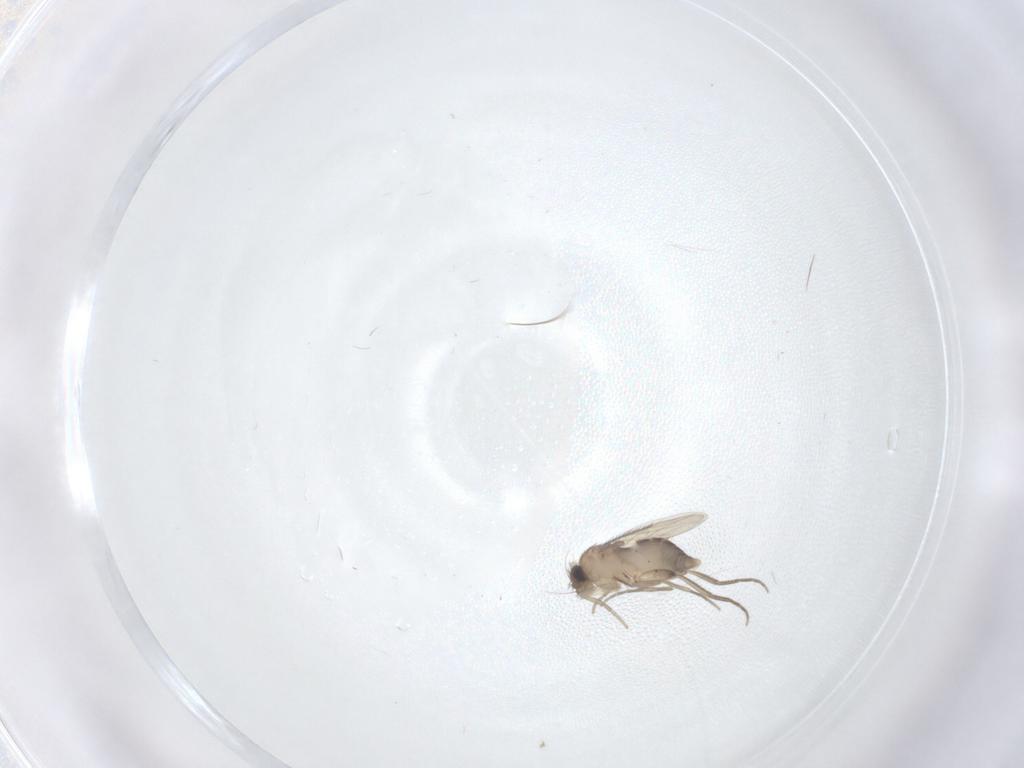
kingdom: Animalia
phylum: Arthropoda
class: Insecta
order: Diptera
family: Phoridae
